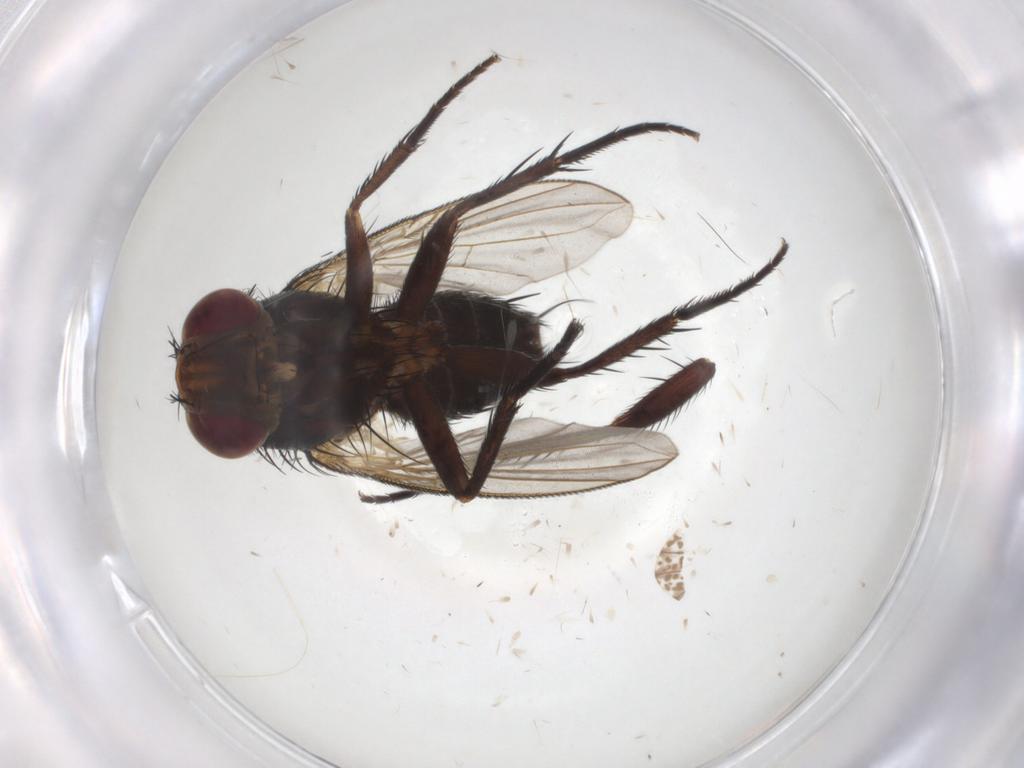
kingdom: Animalia
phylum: Arthropoda
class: Insecta
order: Diptera
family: Tachinidae
